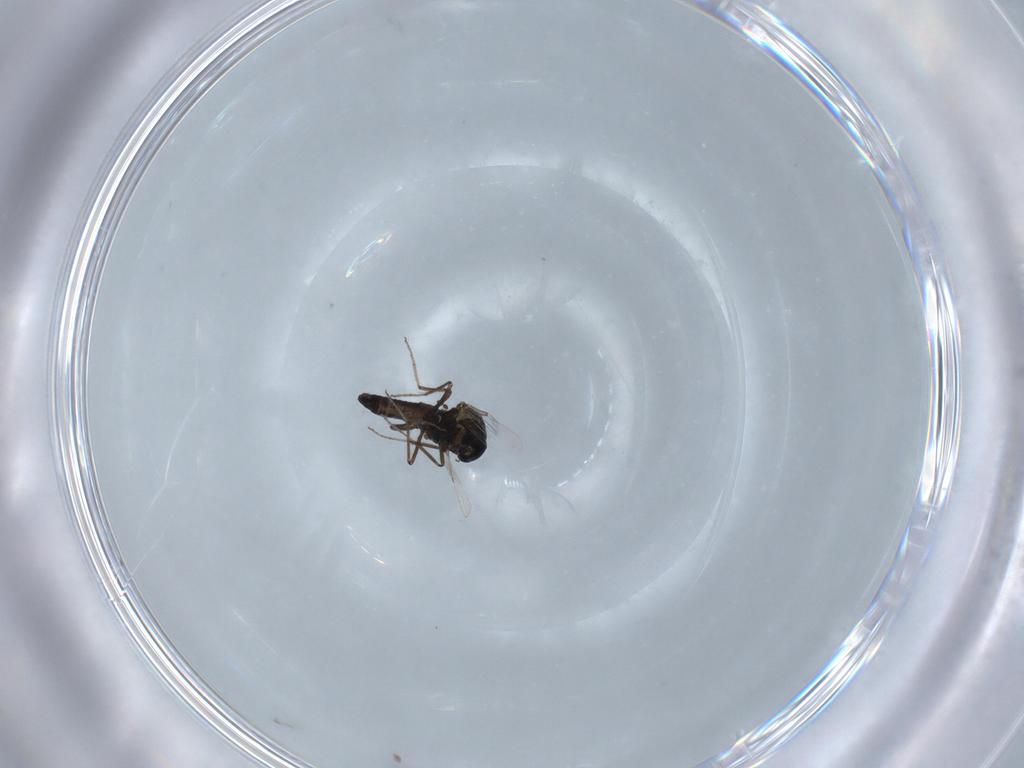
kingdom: Animalia
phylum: Arthropoda
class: Insecta
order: Diptera
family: Ceratopogonidae
